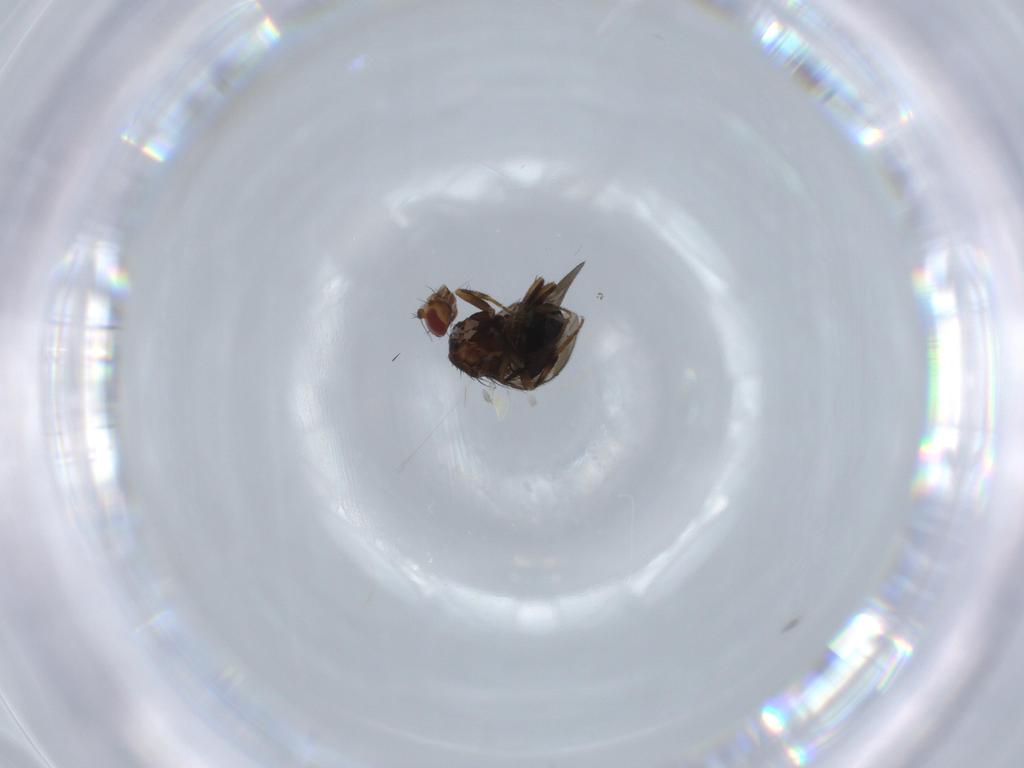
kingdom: Animalia
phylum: Arthropoda
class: Insecta
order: Diptera
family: Sphaeroceridae
